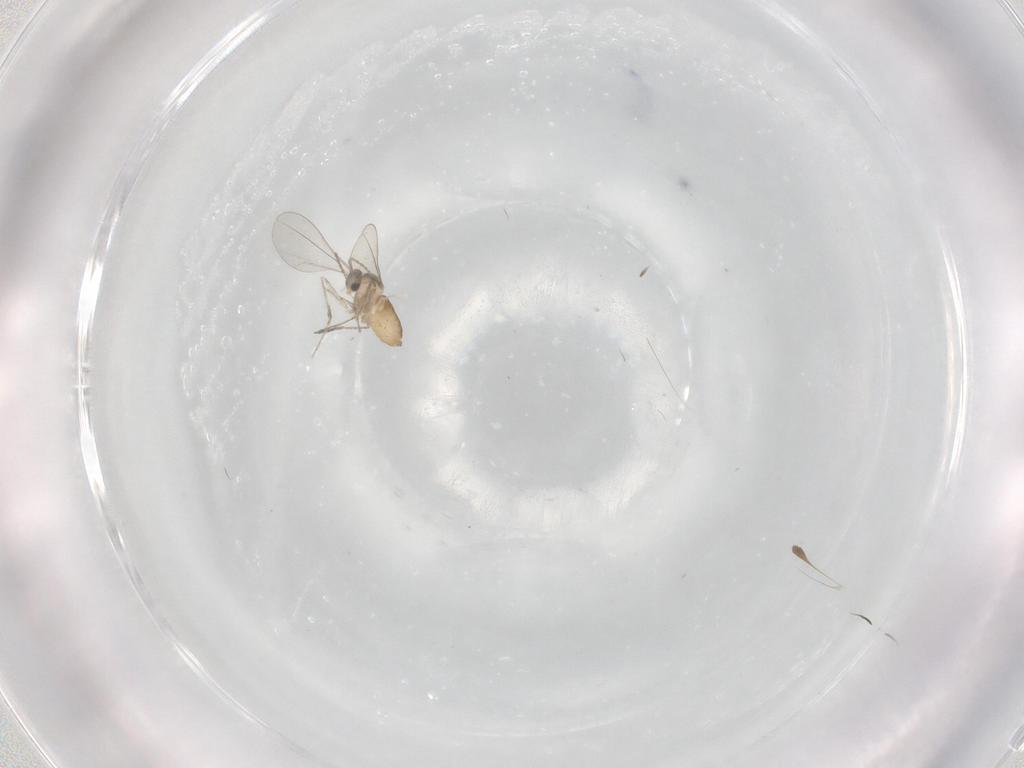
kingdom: Animalia
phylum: Arthropoda
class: Insecta
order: Diptera
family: Cecidomyiidae
